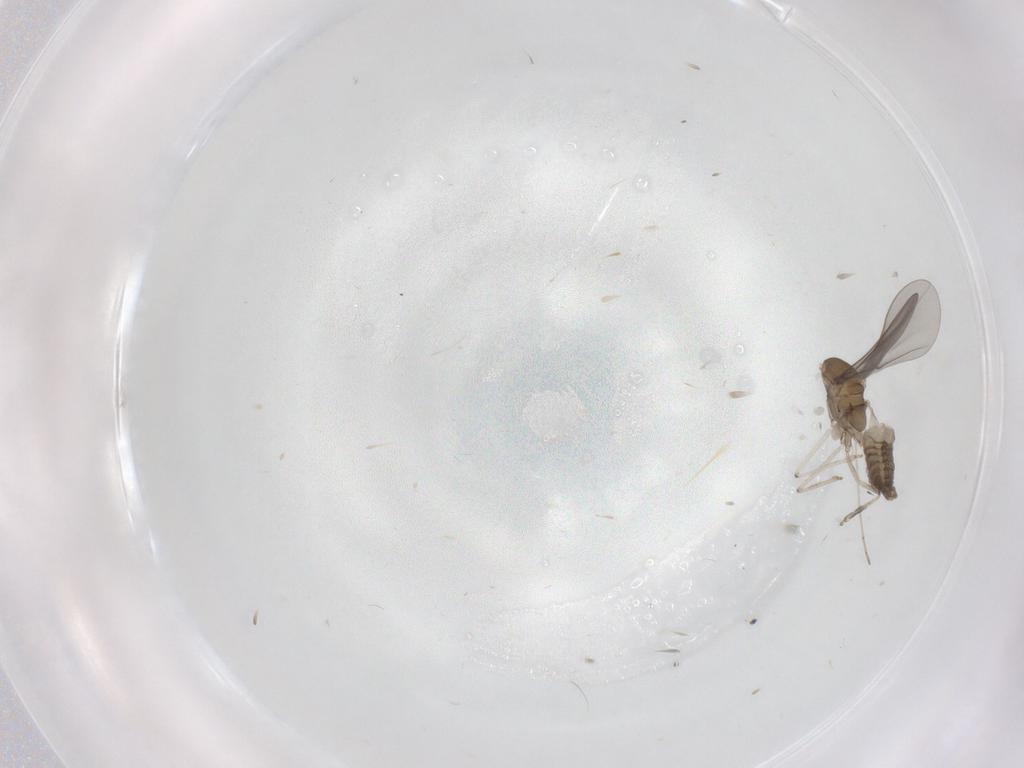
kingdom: Animalia
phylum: Arthropoda
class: Insecta
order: Diptera
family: Cecidomyiidae
